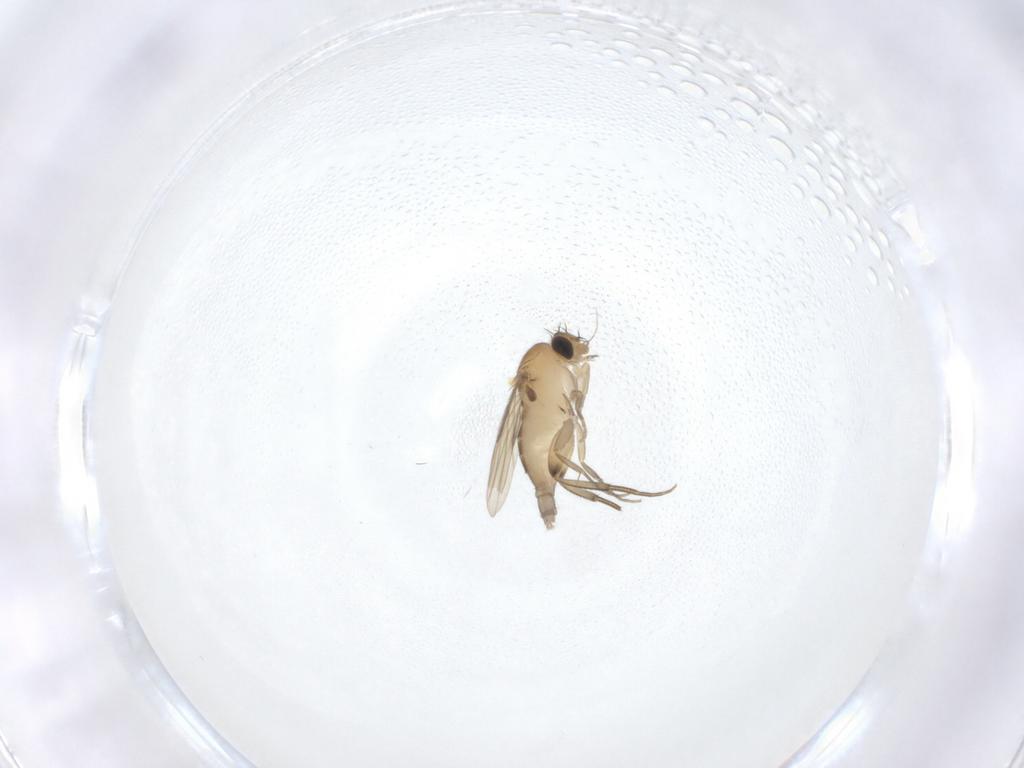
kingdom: Animalia
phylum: Arthropoda
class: Insecta
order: Diptera
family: Phoridae
